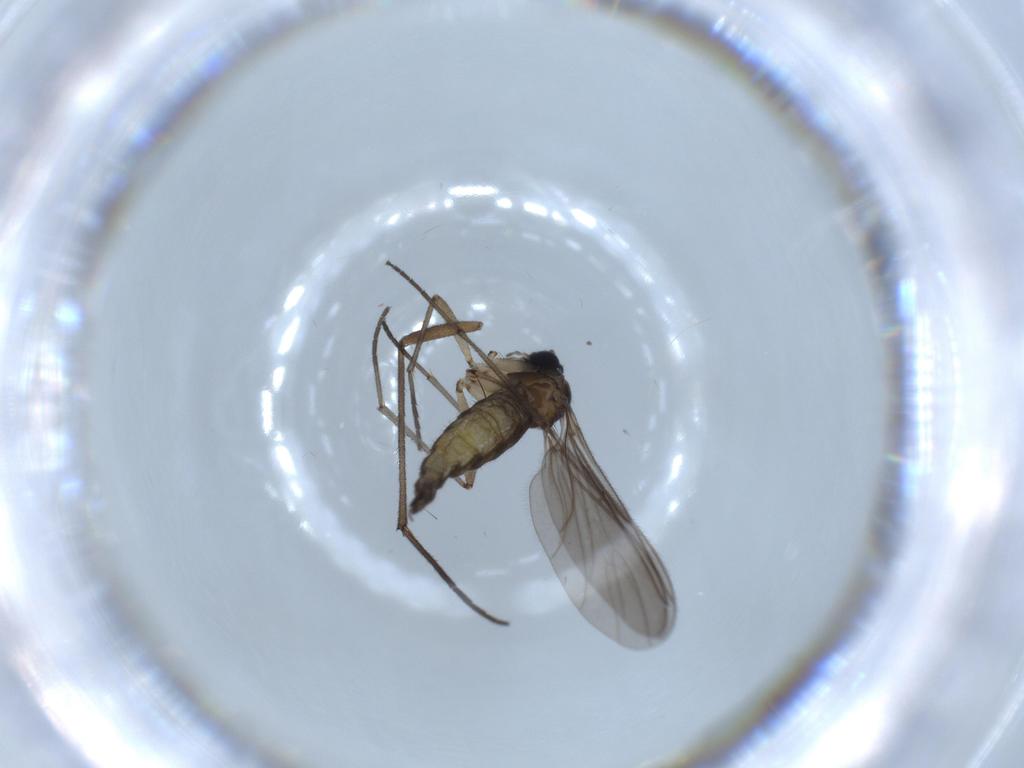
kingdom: Animalia
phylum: Arthropoda
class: Insecta
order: Diptera
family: Sciaridae
